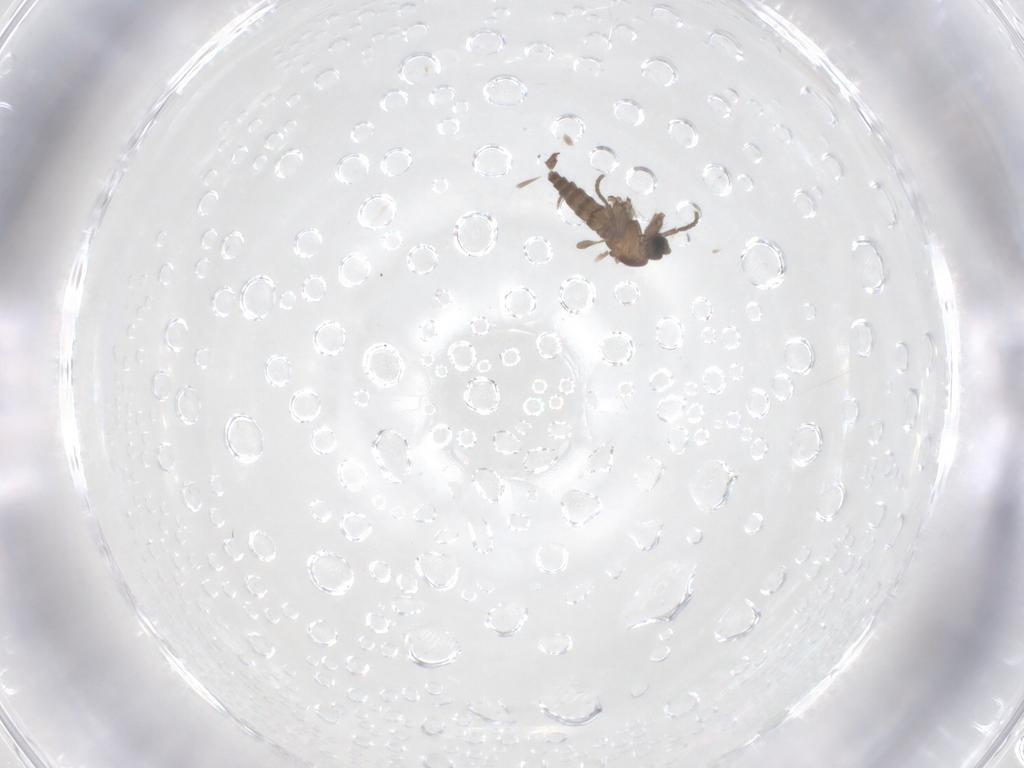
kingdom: Animalia
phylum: Arthropoda
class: Insecta
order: Diptera
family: Sciaridae
